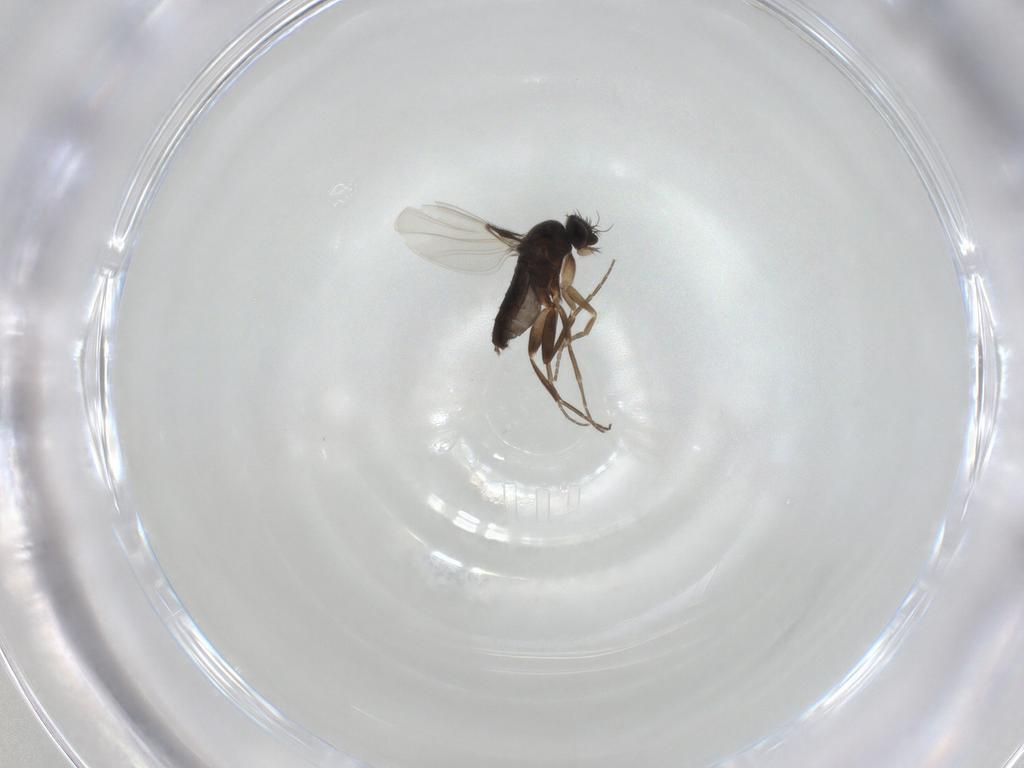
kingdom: Animalia
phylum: Arthropoda
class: Insecta
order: Diptera
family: Phoridae
